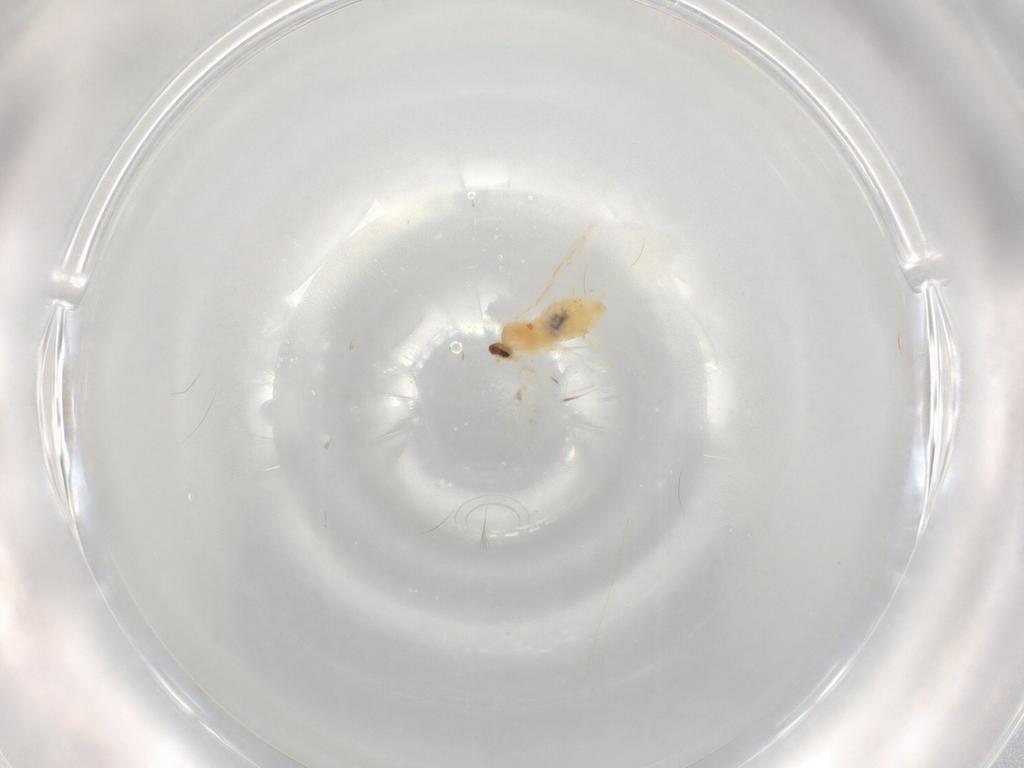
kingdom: Animalia
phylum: Arthropoda
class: Insecta
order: Diptera
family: Cecidomyiidae
